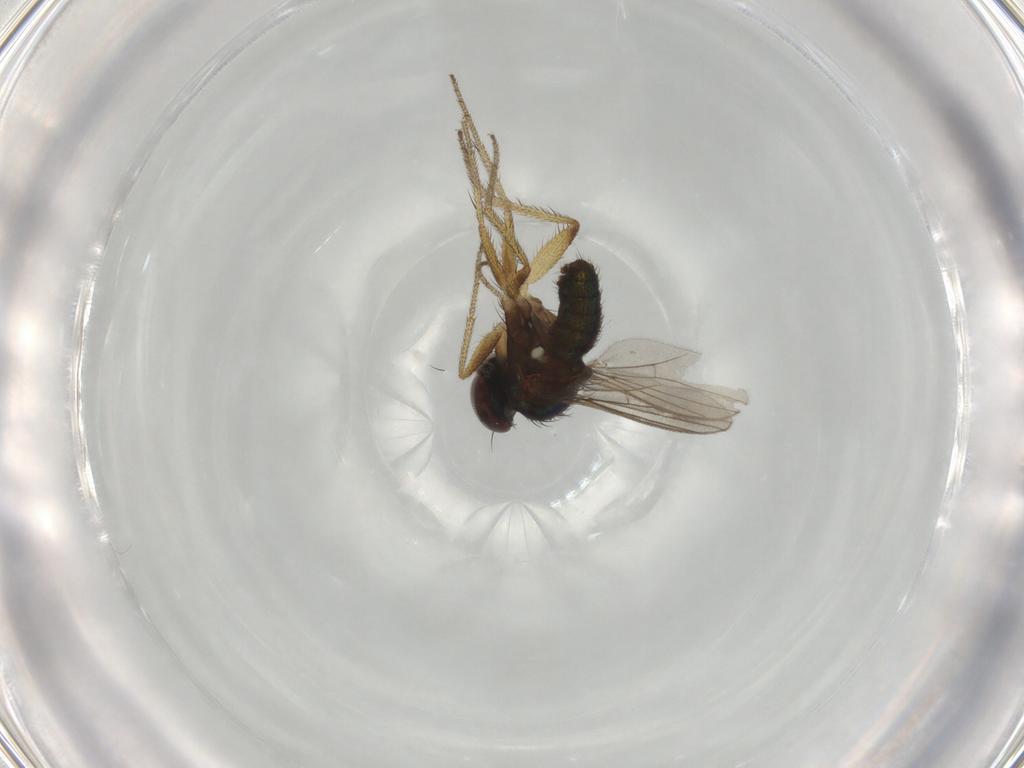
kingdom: Animalia
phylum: Arthropoda
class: Insecta
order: Diptera
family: Dolichopodidae
